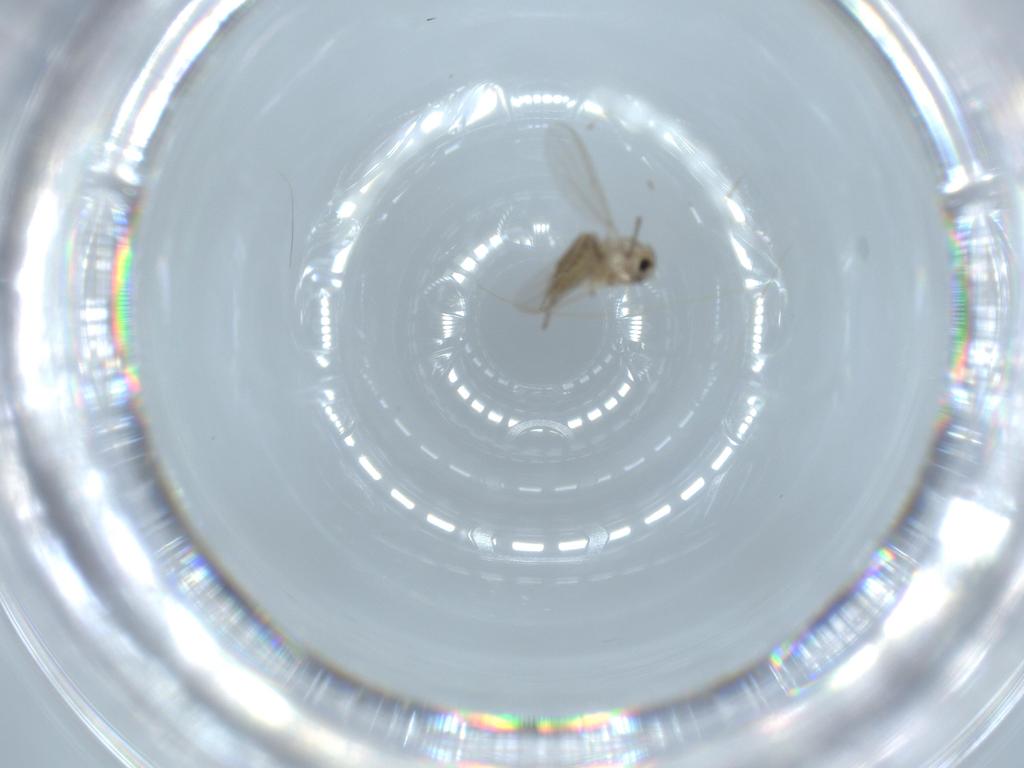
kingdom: Animalia
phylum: Arthropoda
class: Insecta
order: Diptera
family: Chironomidae
